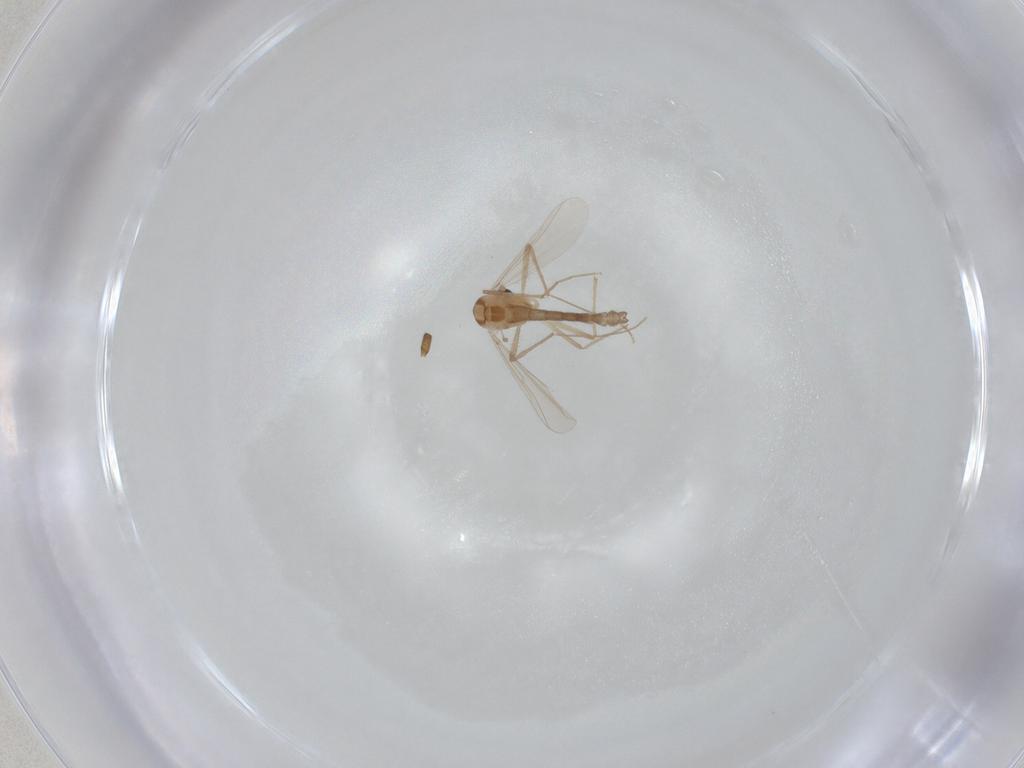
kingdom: Animalia
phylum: Arthropoda
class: Insecta
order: Diptera
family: Chironomidae
